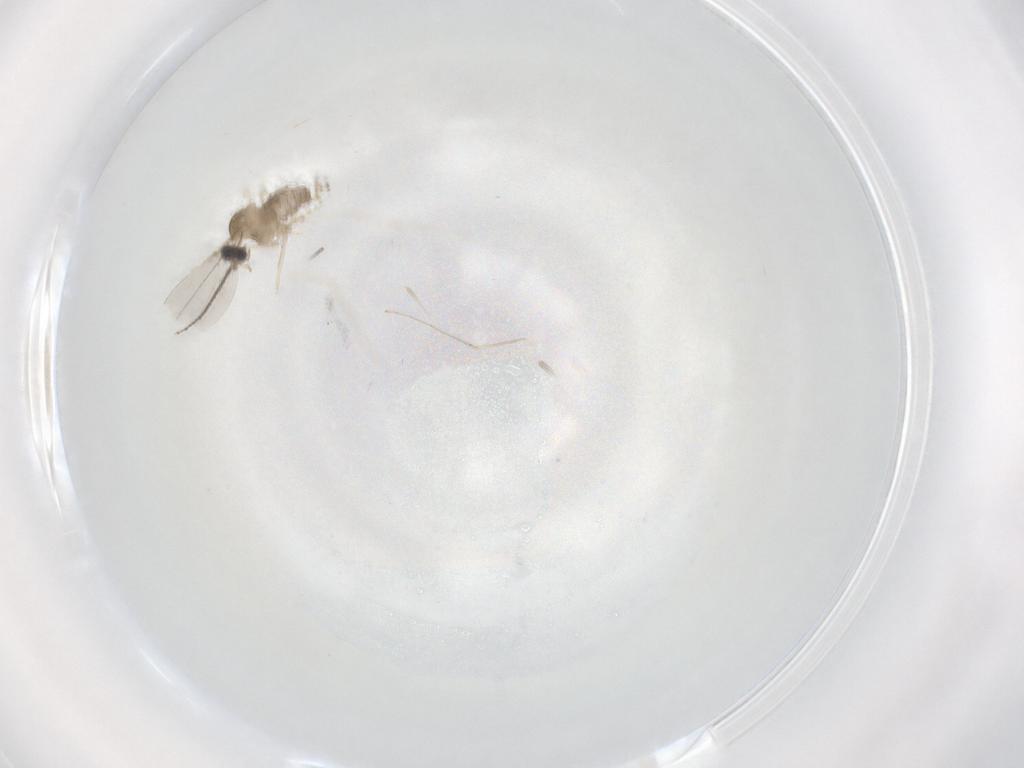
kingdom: Animalia
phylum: Arthropoda
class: Insecta
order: Diptera
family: Cecidomyiidae
